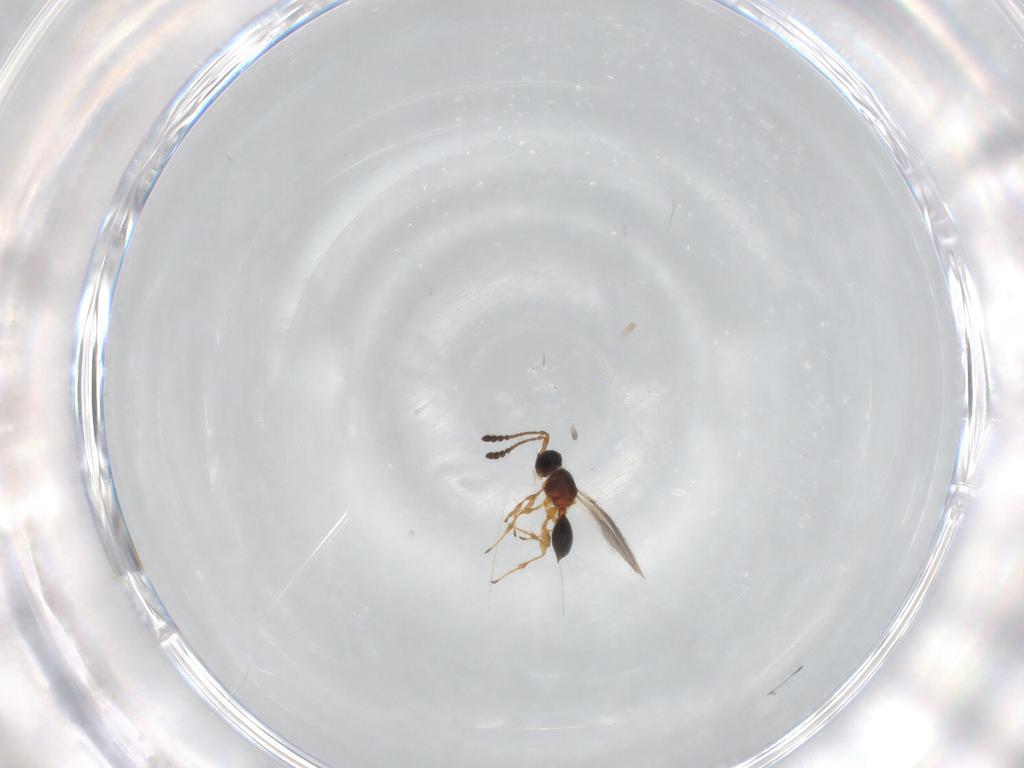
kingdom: Animalia
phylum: Arthropoda
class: Insecta
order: Hymenoptera
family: Diapriidae
